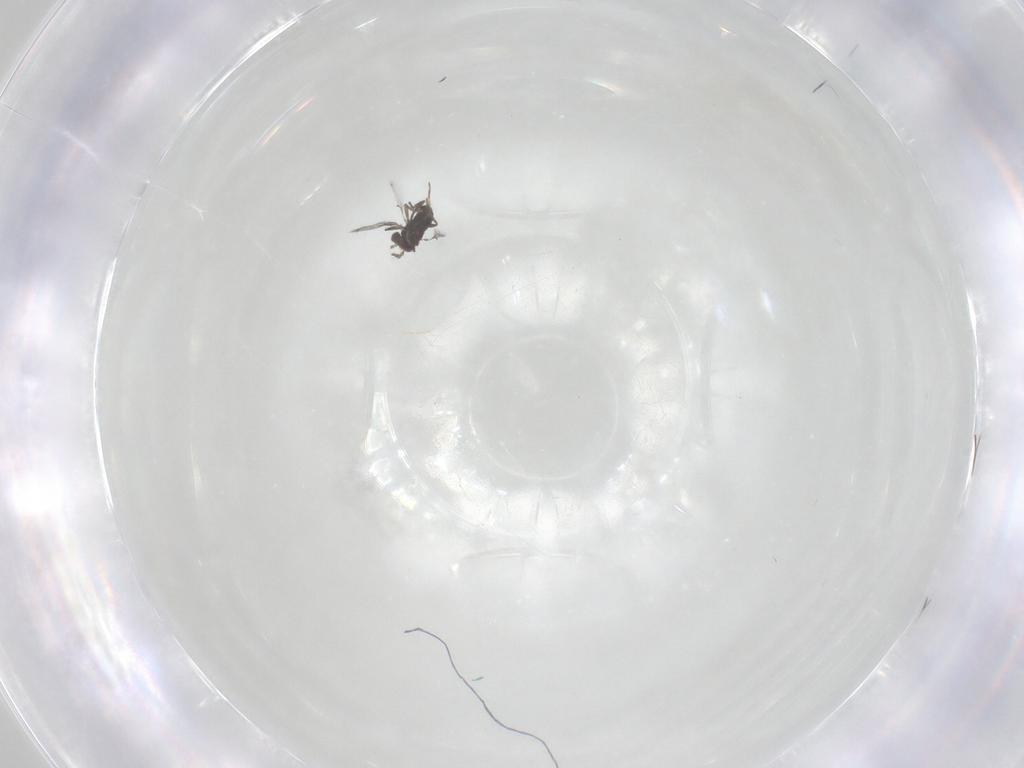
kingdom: Animalia
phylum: Arthropoda
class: Insecta
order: Hymenoptera
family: Trichogrammatidae
